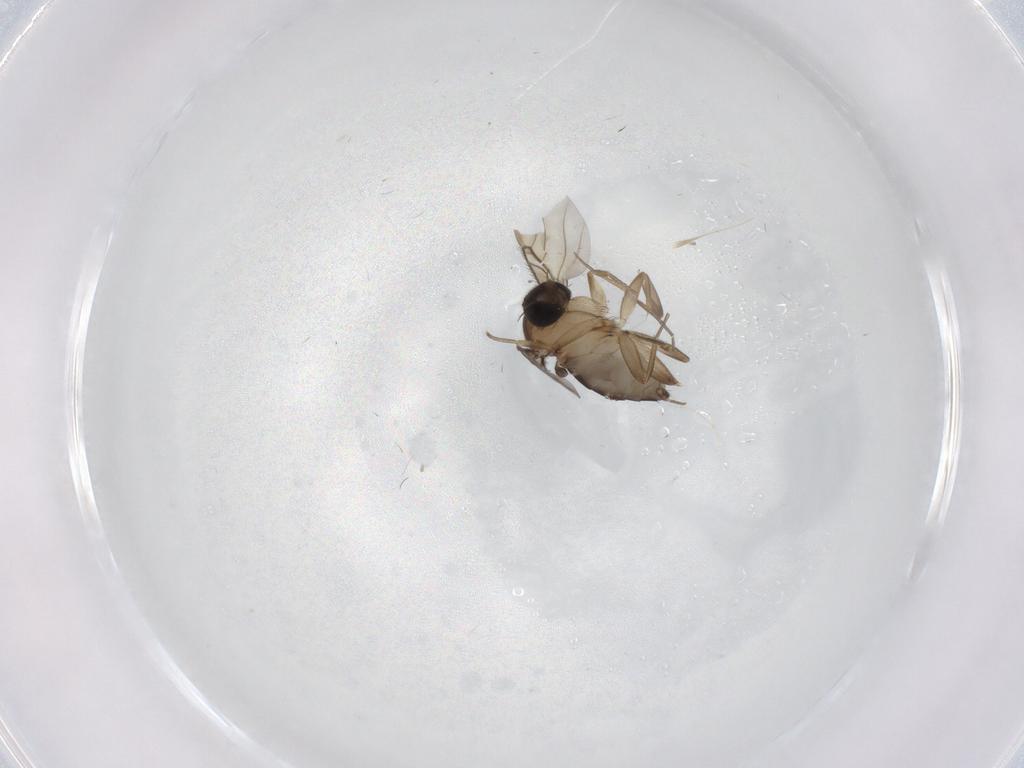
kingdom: Animalia
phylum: Arthropoda
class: Insecta
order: Diptera
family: Phoridae
